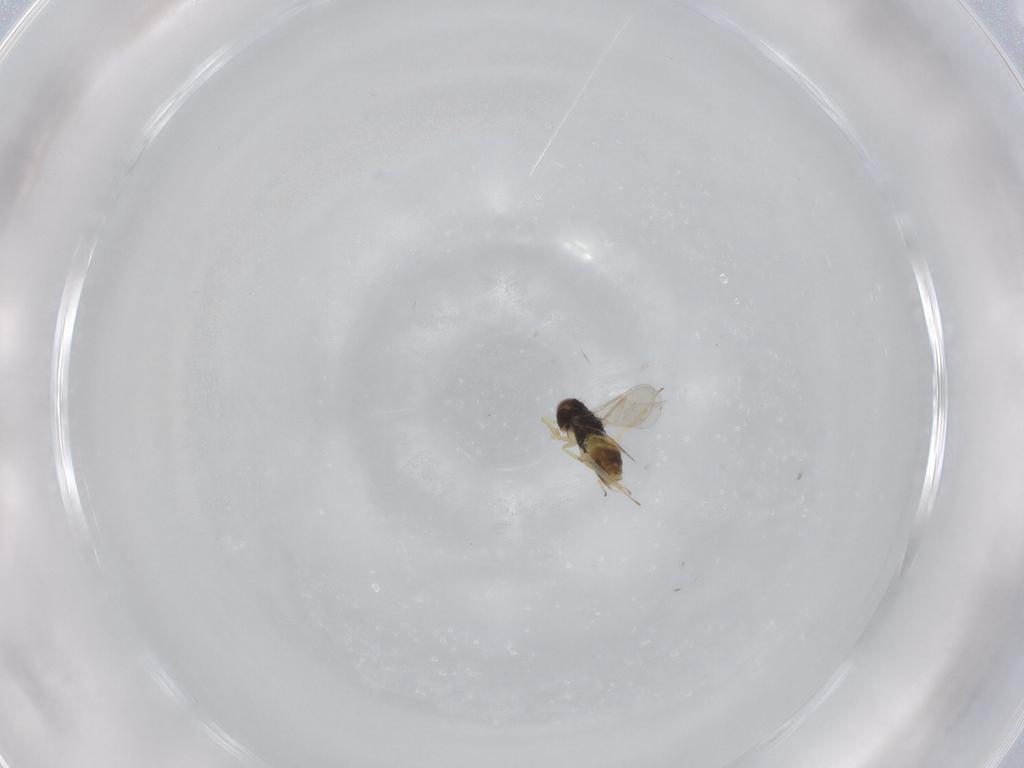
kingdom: Animalia
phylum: Arthropoda
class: Insecta
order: Hymenoptera
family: Aphelinidae
